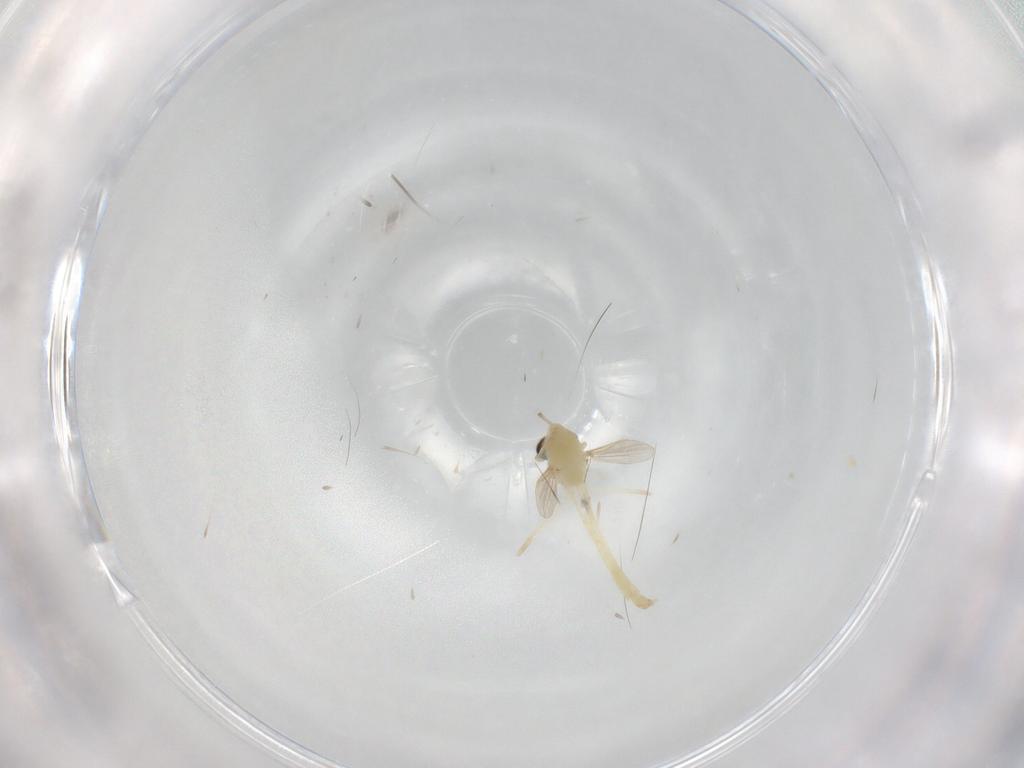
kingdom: Animalia
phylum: Arthropoda
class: Insecta
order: Diptera
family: Chironomidae
